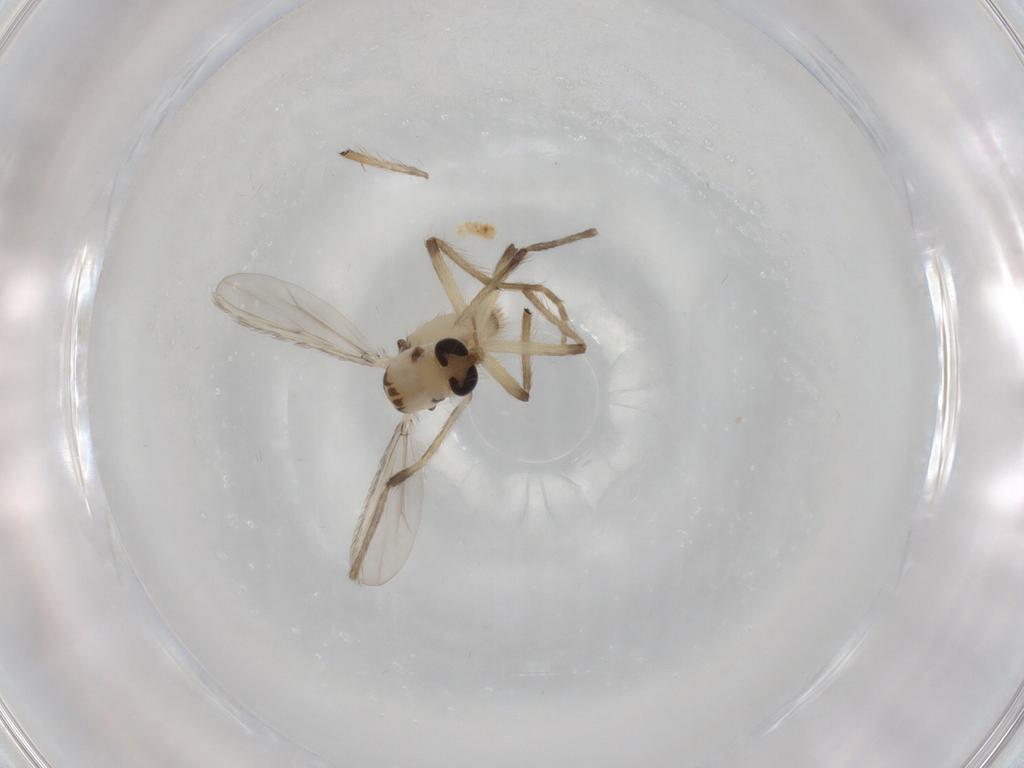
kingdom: Animalia
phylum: Arthropoda
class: Insecta
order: Diptera
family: Chironomidae
